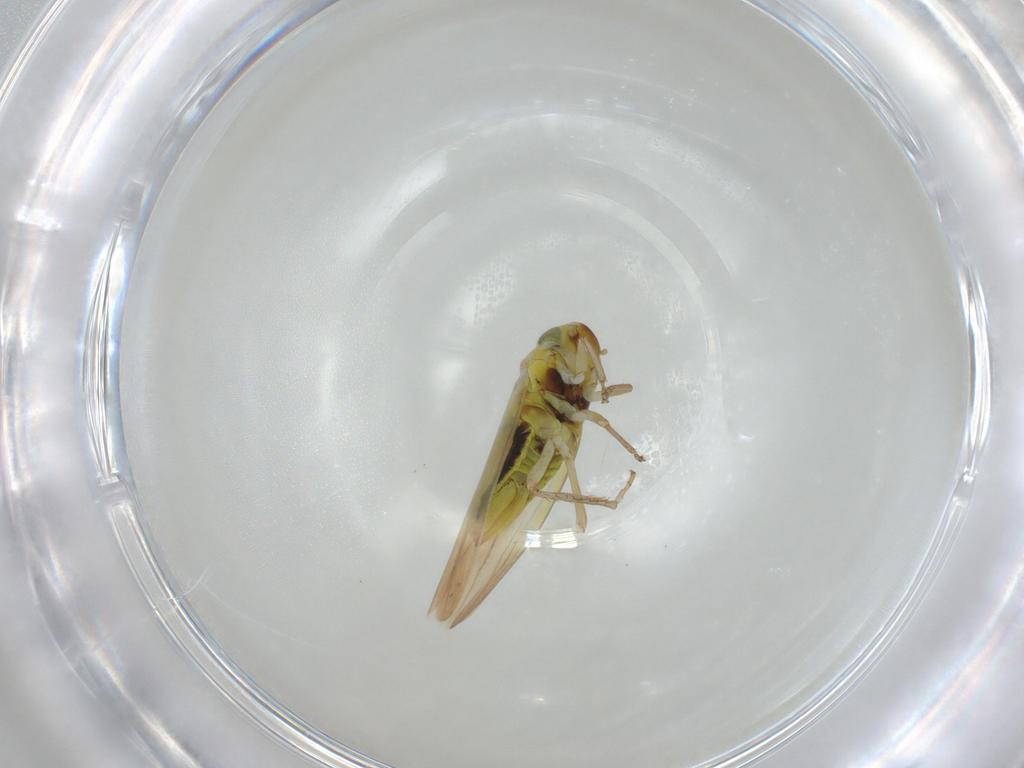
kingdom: Animalia
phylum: Arthropoda
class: Insecta
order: Hemiptera
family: Cicadellidae
